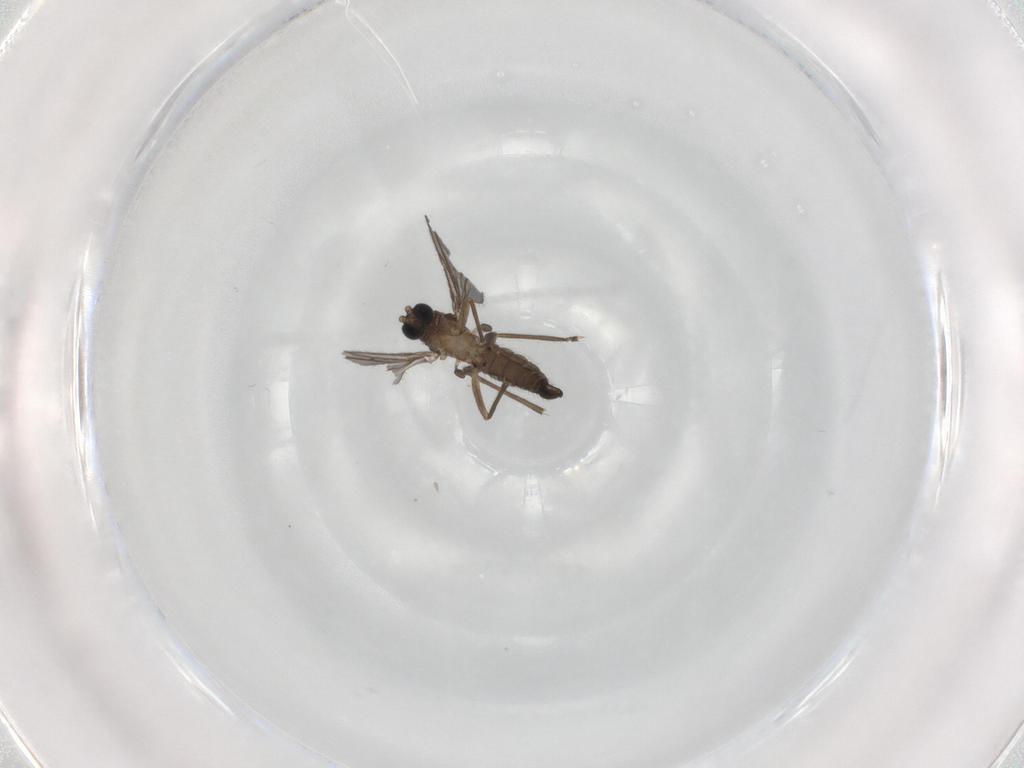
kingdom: Animalia
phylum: Arthropoda
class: Insecta
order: Diptera
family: Sciaridae
